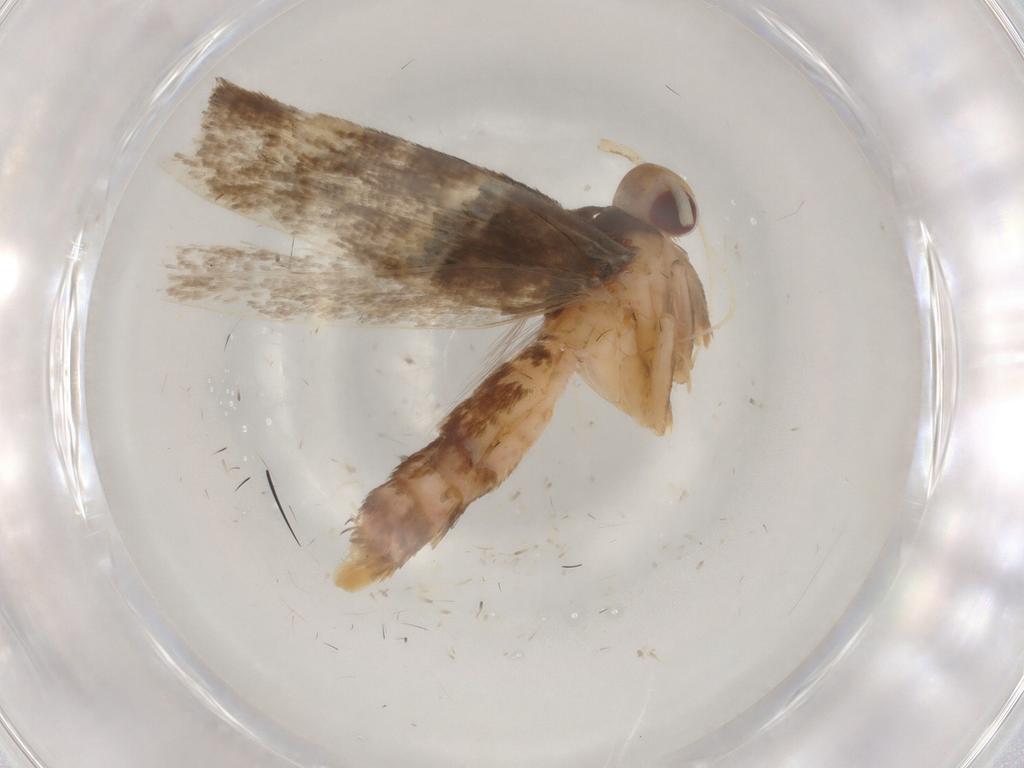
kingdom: Animalia
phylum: Arthropoda
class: Insecta
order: Lepidoptera
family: Cosmopterigidae
